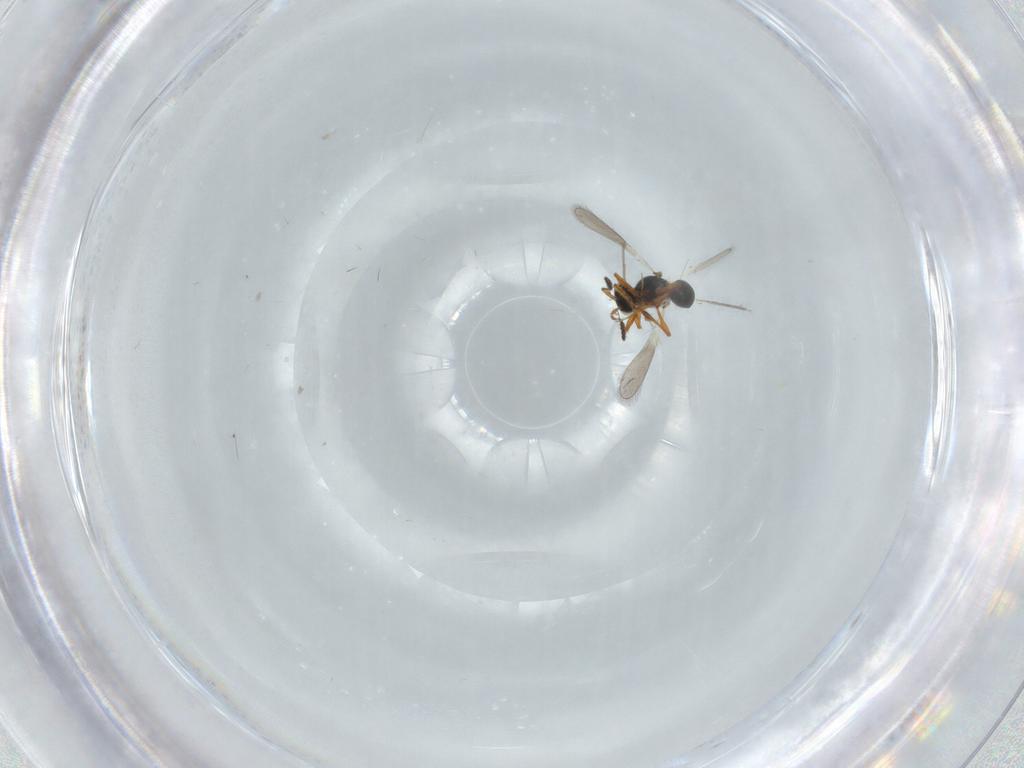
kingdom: Animalia
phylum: Arthropoda
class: Insecta
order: Hymenoptera
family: Platygastridae
